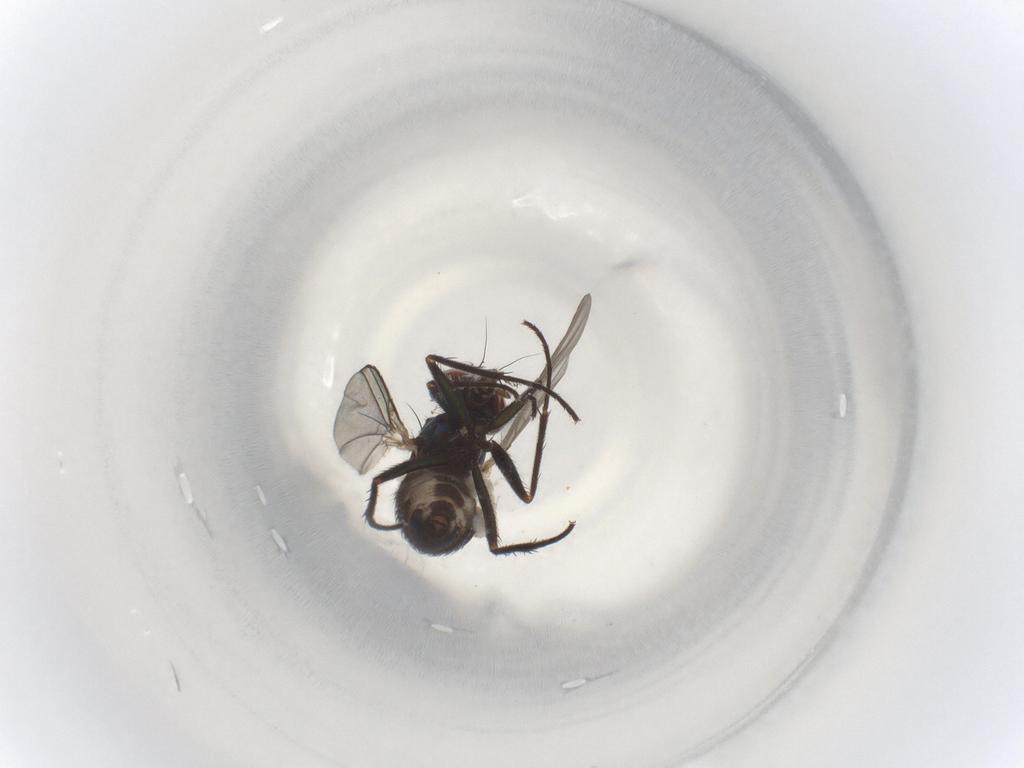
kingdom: Animalia
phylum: Arthropoda
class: Insecta
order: Diptera
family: Dolichopodidae
